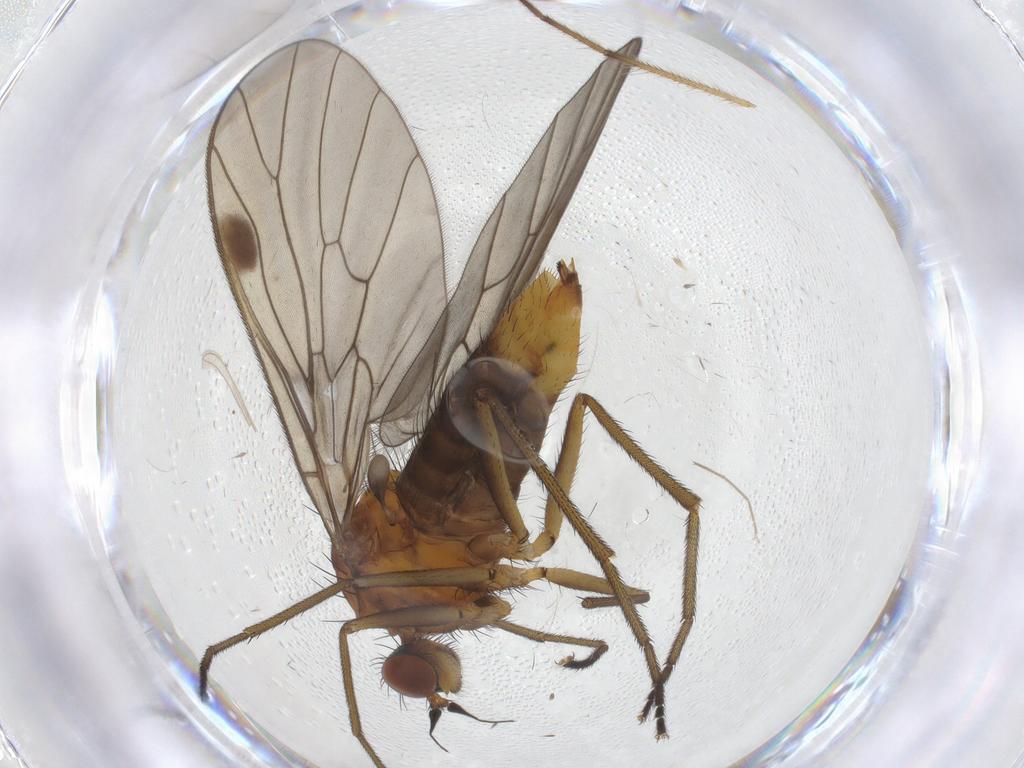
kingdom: Animalia
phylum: Arthropoda
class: Insecta
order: Diptera
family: Empididae
